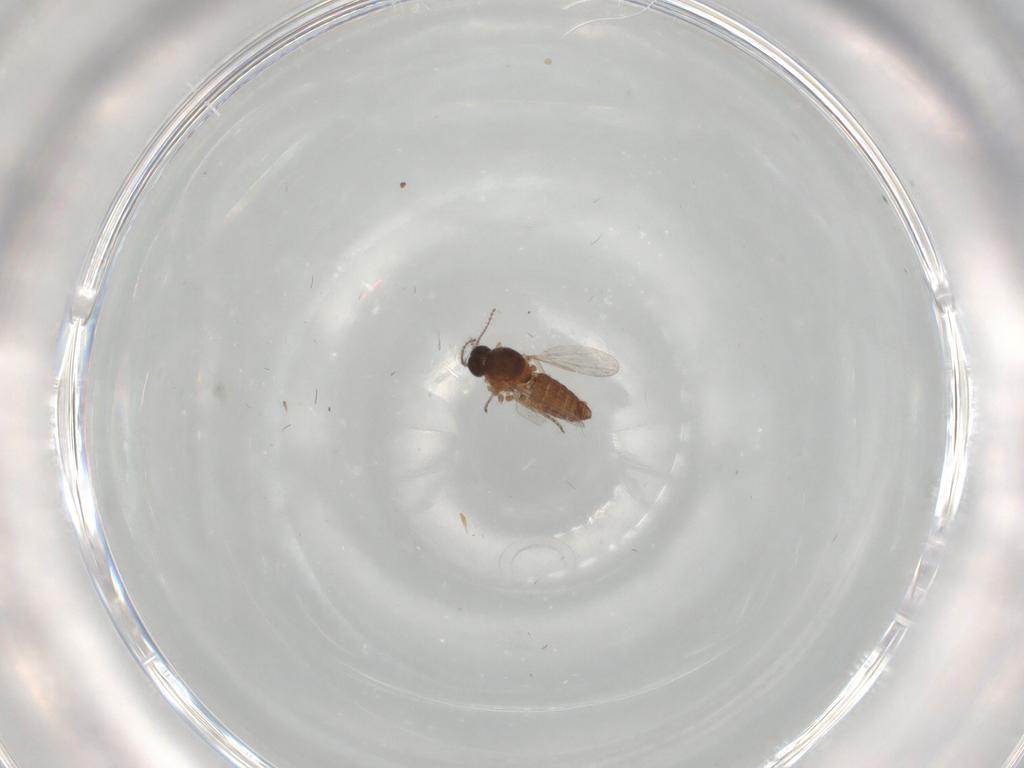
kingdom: Animalia
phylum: Arthropoda
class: Insecta
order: Diptera
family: Ceratopogonidae
